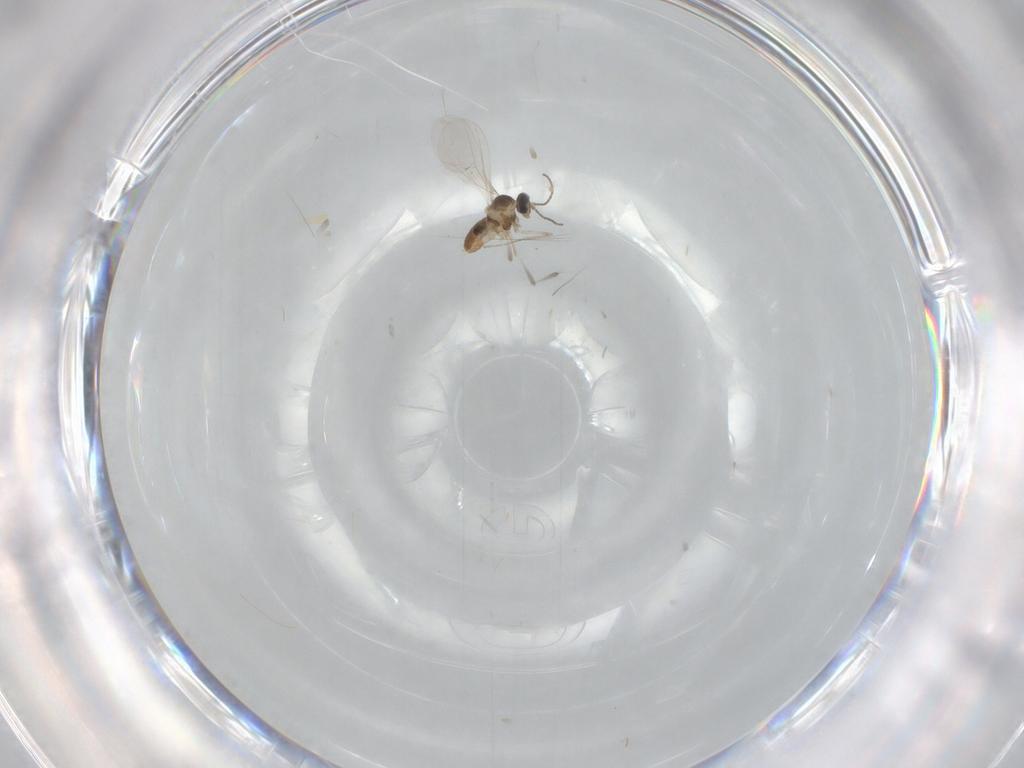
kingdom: Animalia
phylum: Arthropoda
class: Insecta
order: Diptera
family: Cecidomyiidae
